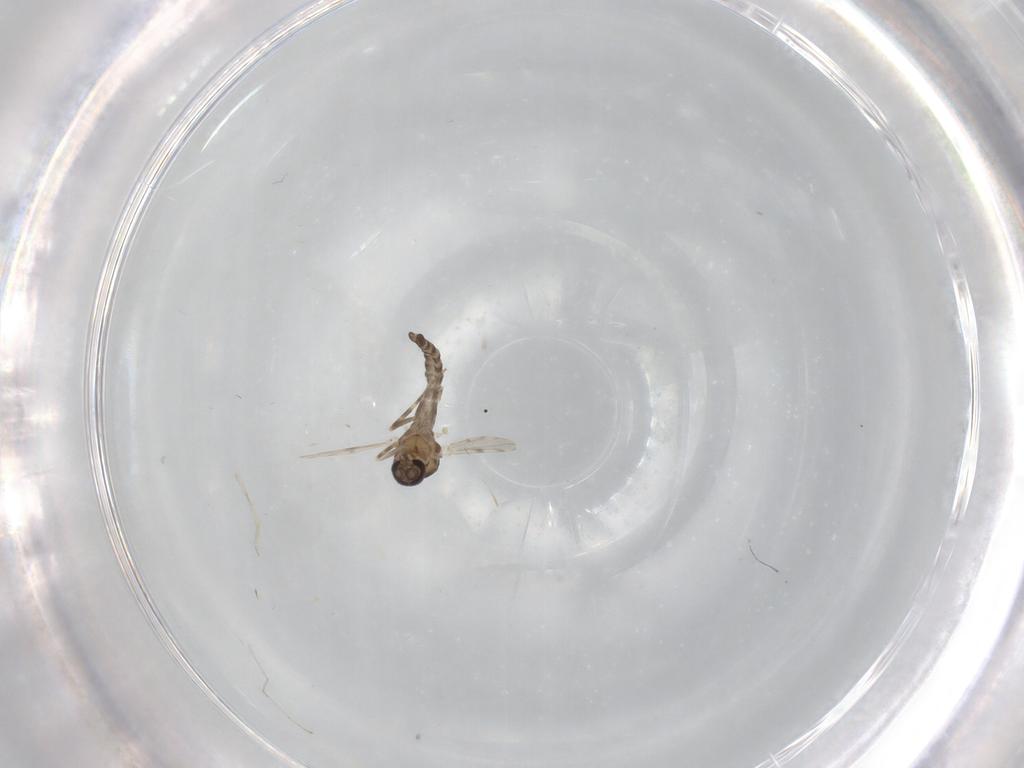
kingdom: Animalia
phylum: Arthropoda
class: Insecta
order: Diptera
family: Ceratopogonidae
